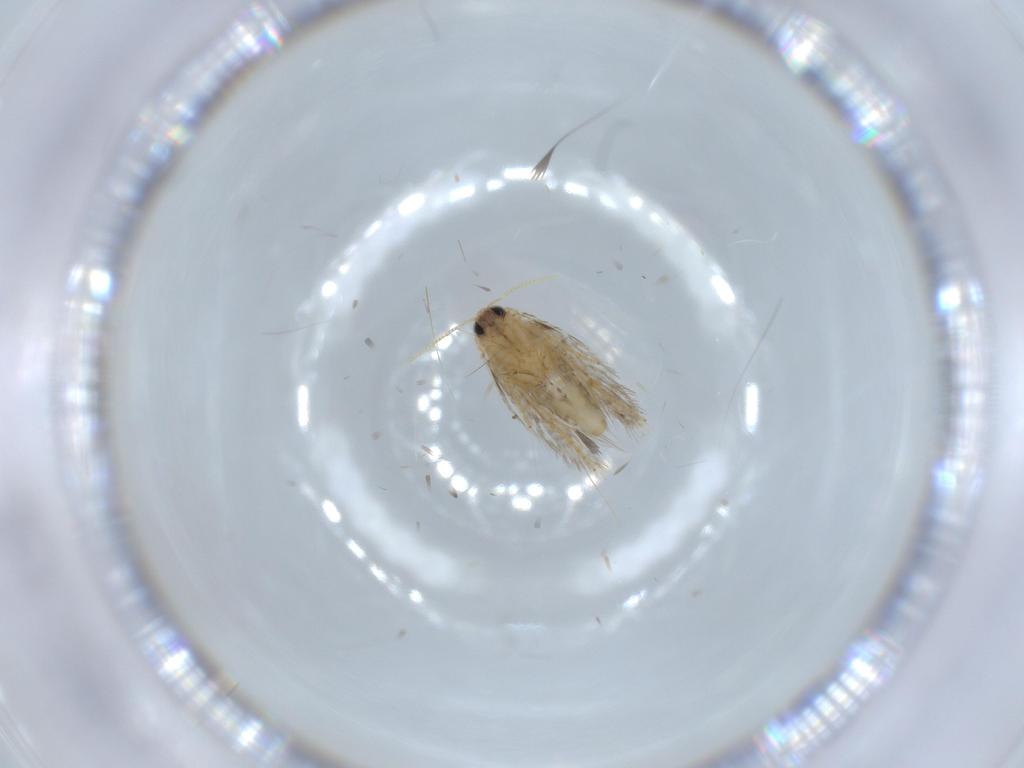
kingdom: Animalia
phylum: Arthropoda
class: Insecta
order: Lepidoptera
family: Copromorphidae
